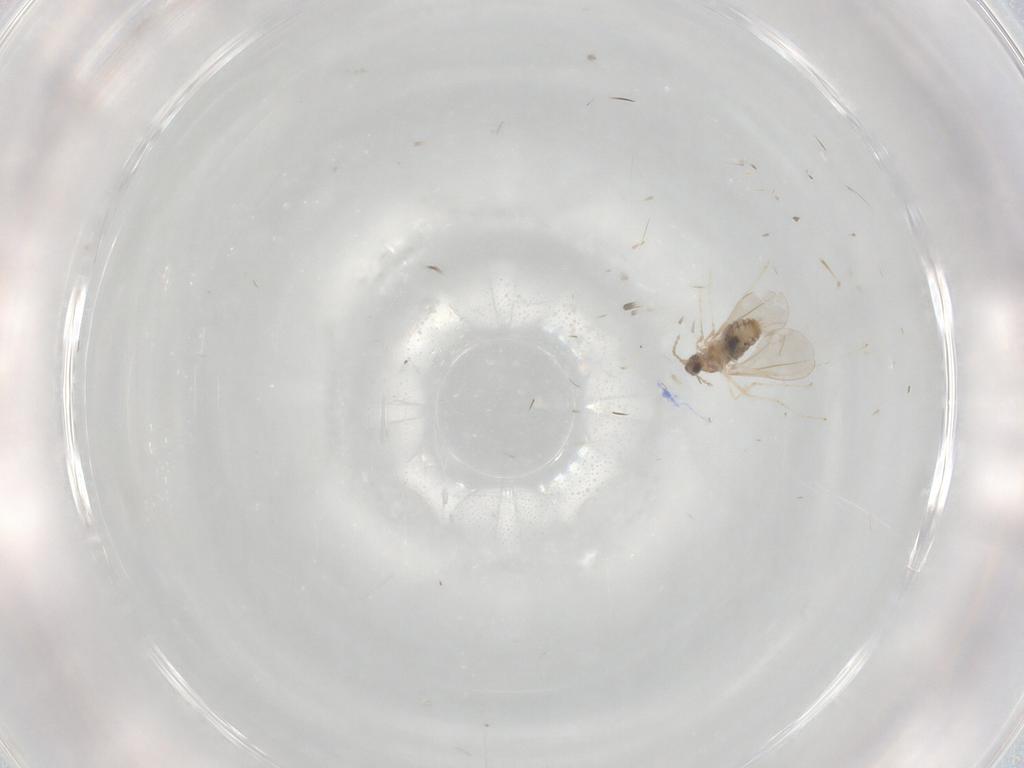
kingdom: Animalia
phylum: Arthropoda
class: Insecta
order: Diptera
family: Cecidomyiidae
